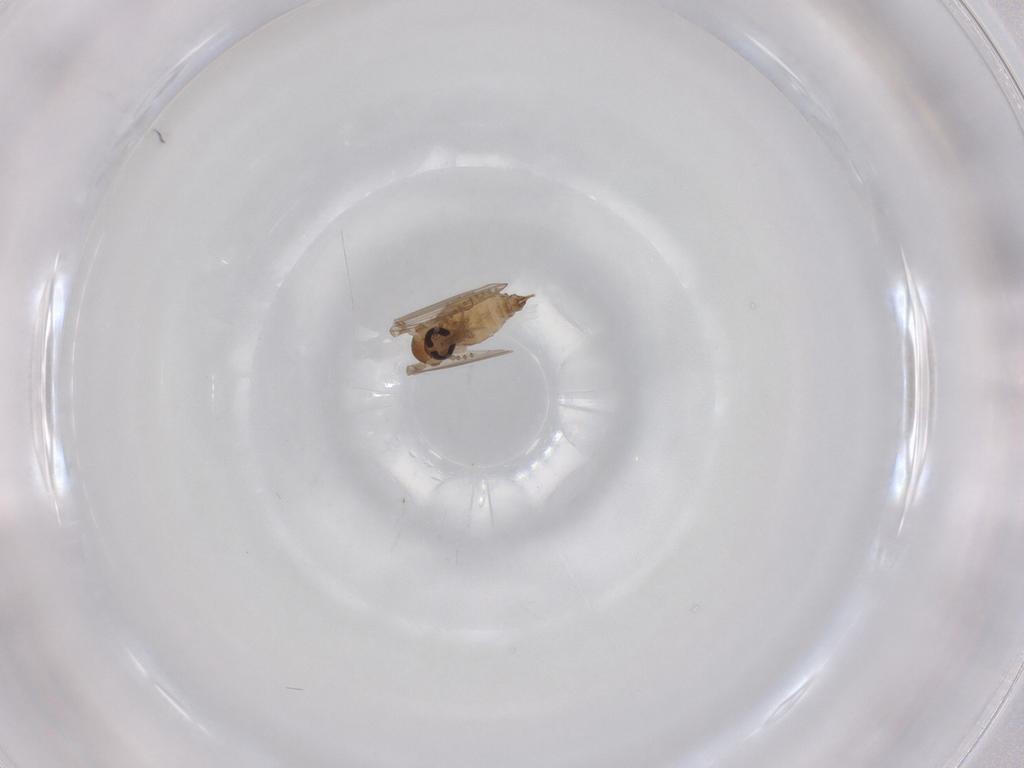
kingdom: Animalia
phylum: Arthropoda
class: Insecta
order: Diptera
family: Psychodidae
